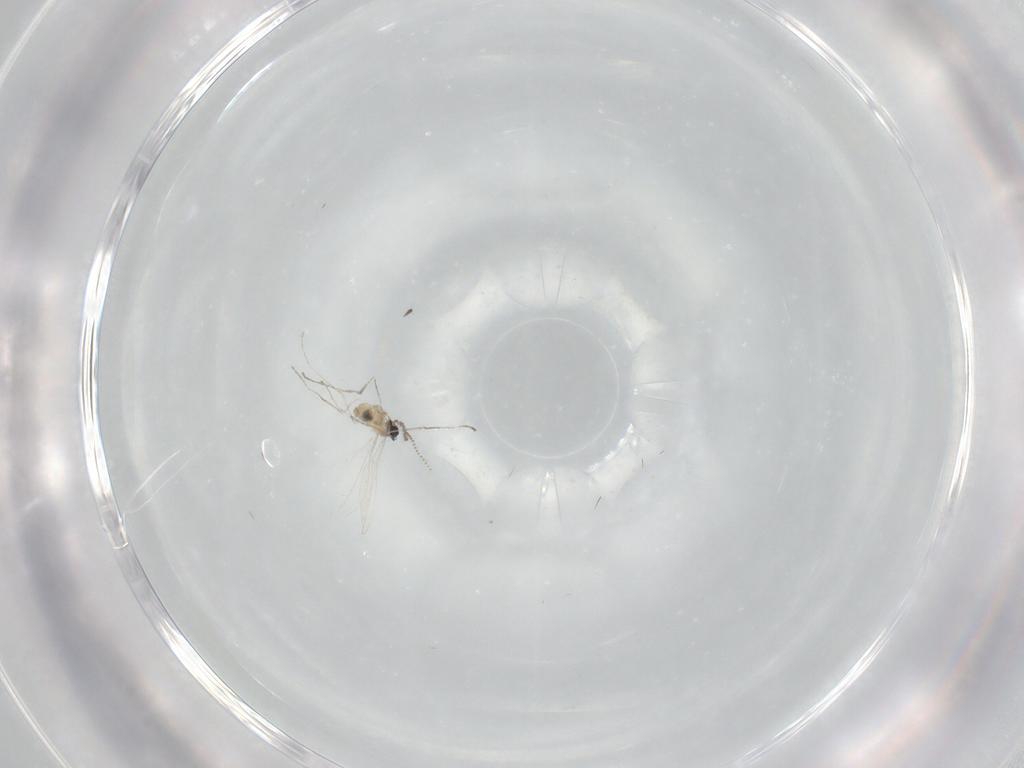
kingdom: Animalia
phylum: Arthropoda
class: Insecta
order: Diptera
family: Cecidomyiidae
